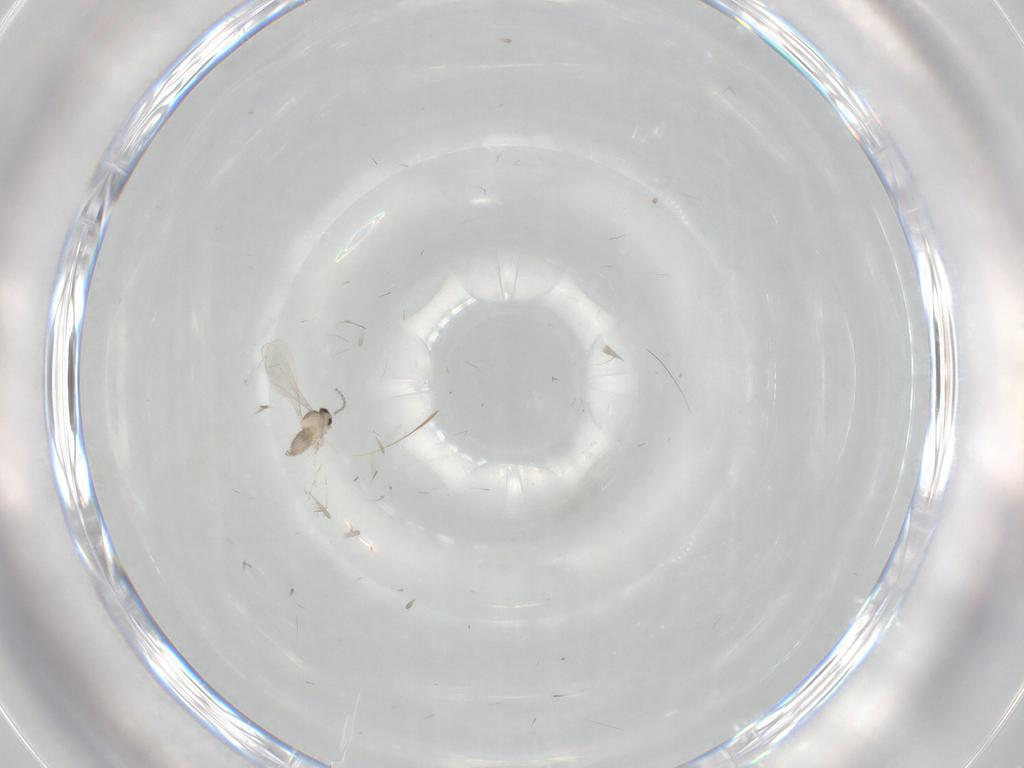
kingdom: Animalia
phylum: Arthropoda
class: Insecta
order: Diptera
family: Cecidomyiidae
